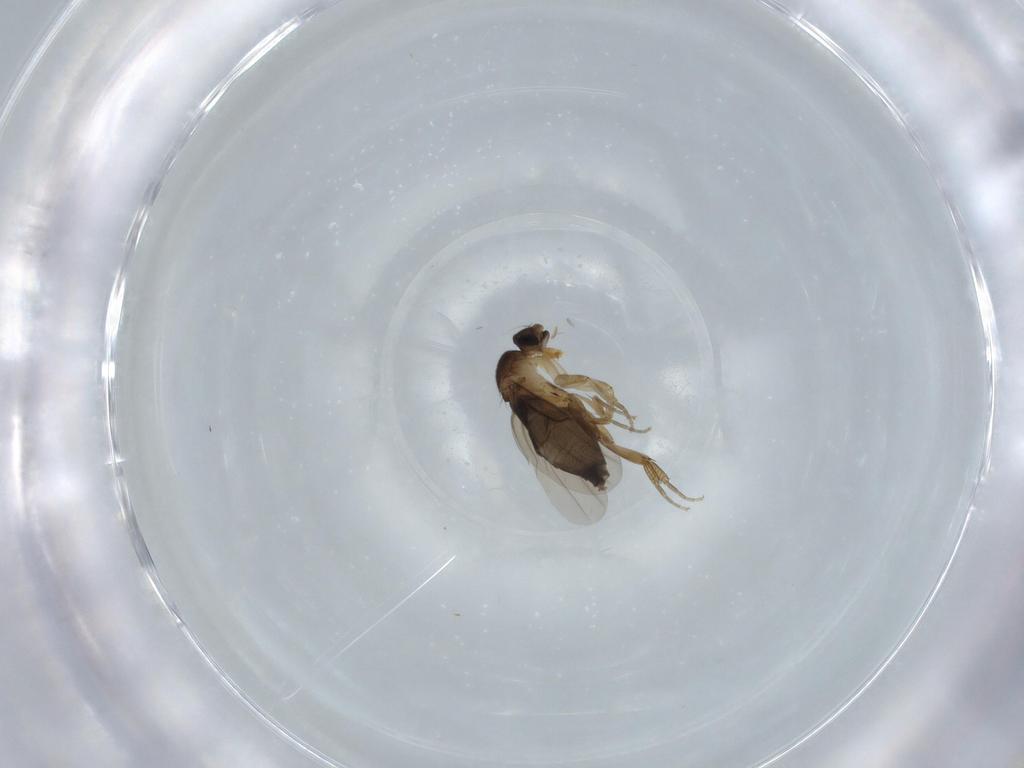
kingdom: Animalia
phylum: Arthropoda
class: Insecta
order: Diptera
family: Phoridae
